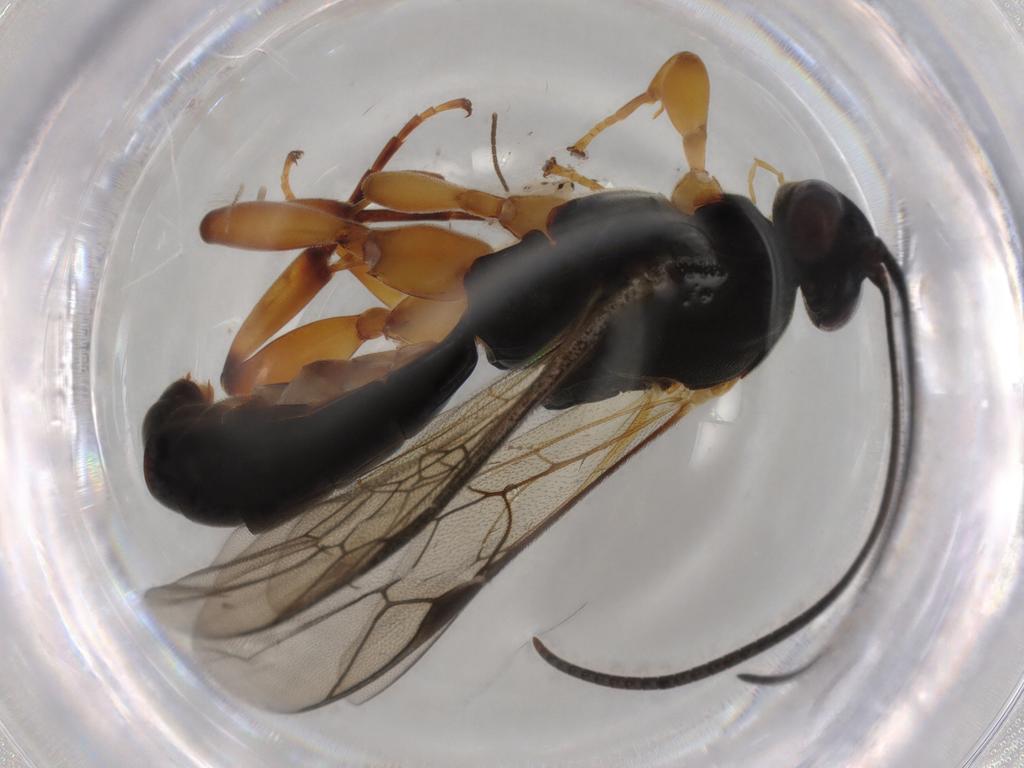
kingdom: Animalia
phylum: Arthropoda
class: Insecta
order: Hymenoptera
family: Ichneumonidae
